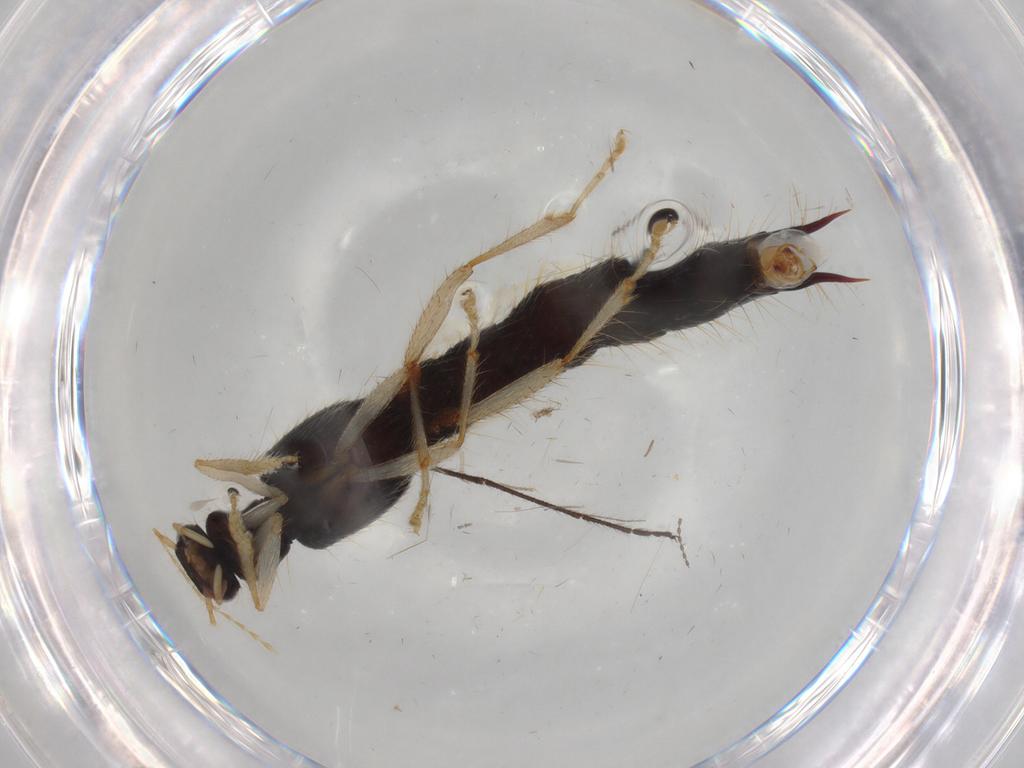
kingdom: Animalia
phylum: Arthropoda
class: Insecta
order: Coleoptera
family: Staphylinidae
